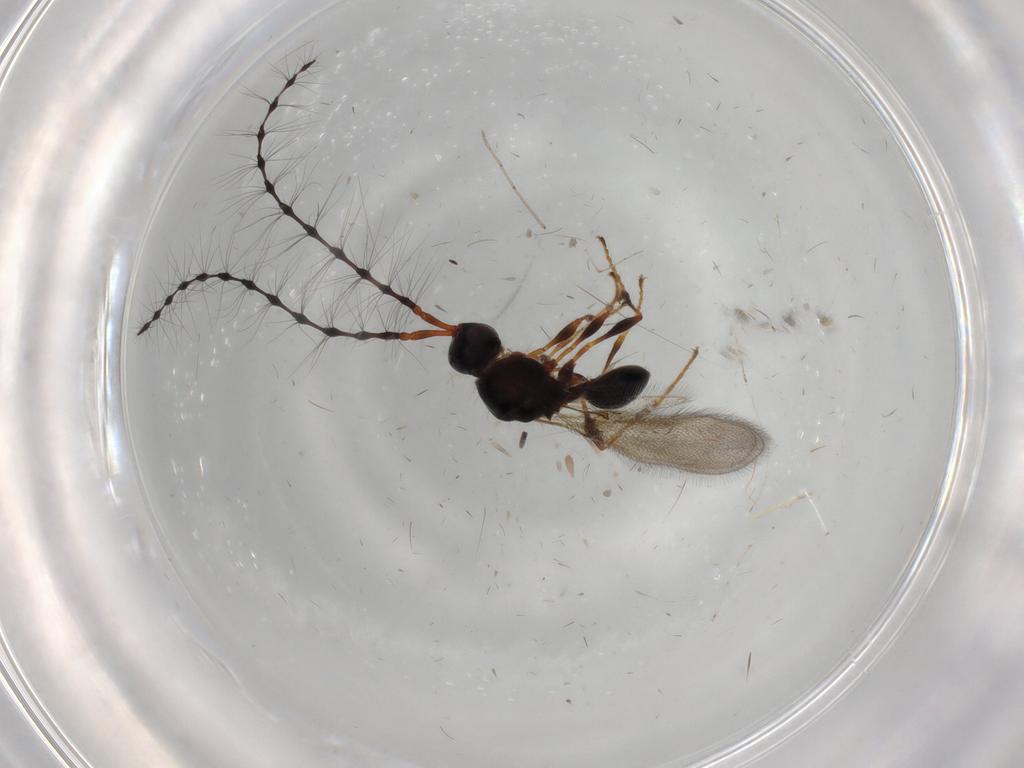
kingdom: Animalia
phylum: Arthropoda
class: Insecta
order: Hymenoptera
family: Diapriidae
